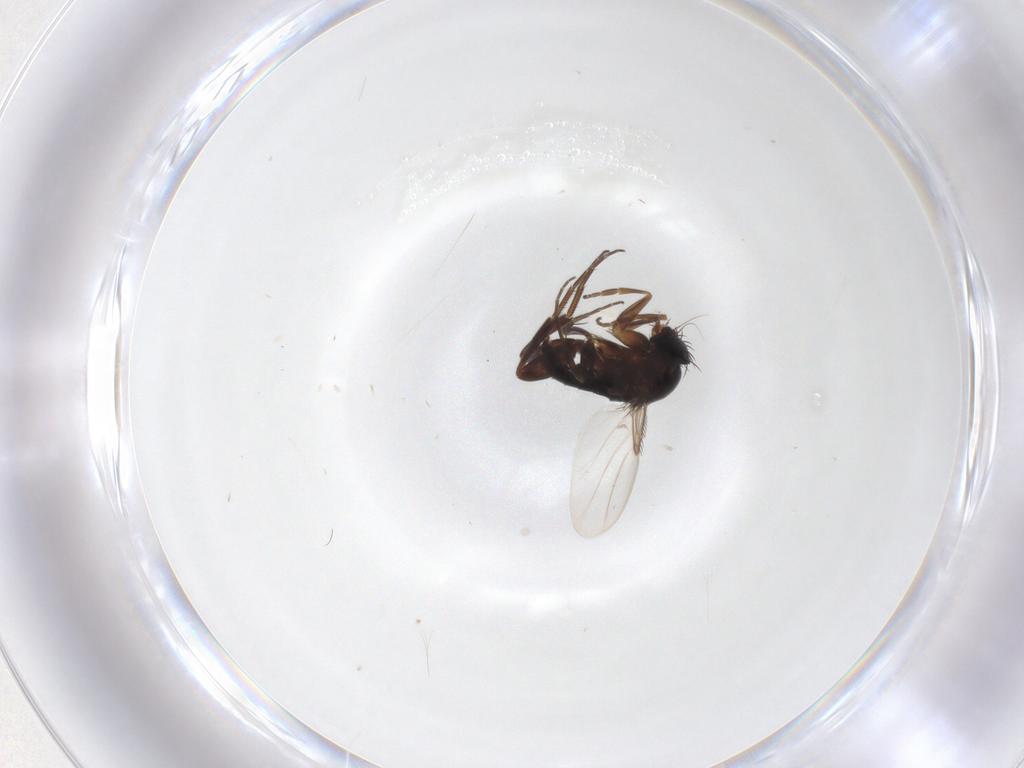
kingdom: Animalia
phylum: Arthropoda
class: Insecta
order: Diptera
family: Phoridae
